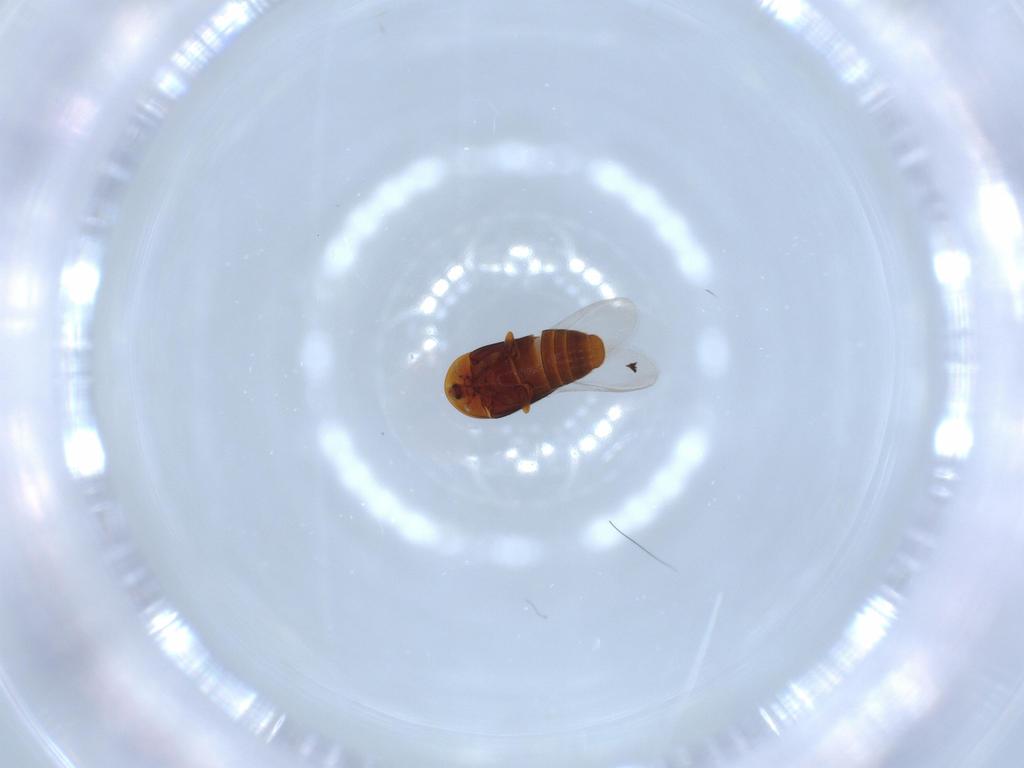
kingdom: Animalia
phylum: Arthropoda
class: Insecta
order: Coleoptera
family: Corylophidae
